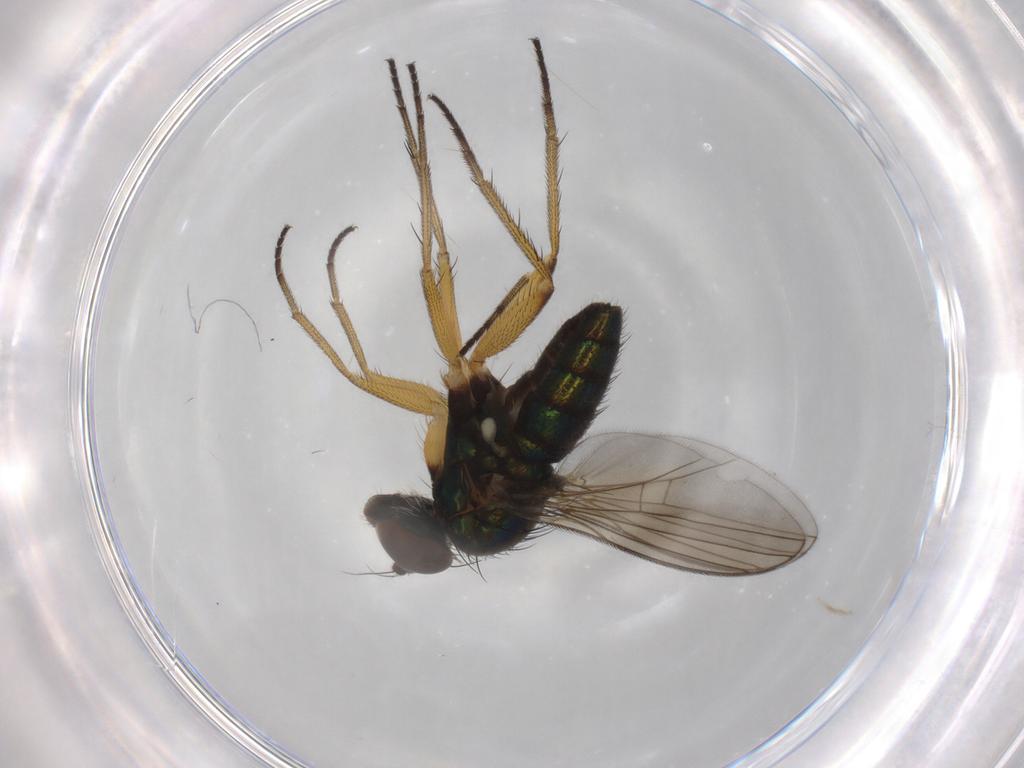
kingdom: Animalia
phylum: Arthropoda
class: Insecta
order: Diptera
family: Dolichopodidae
